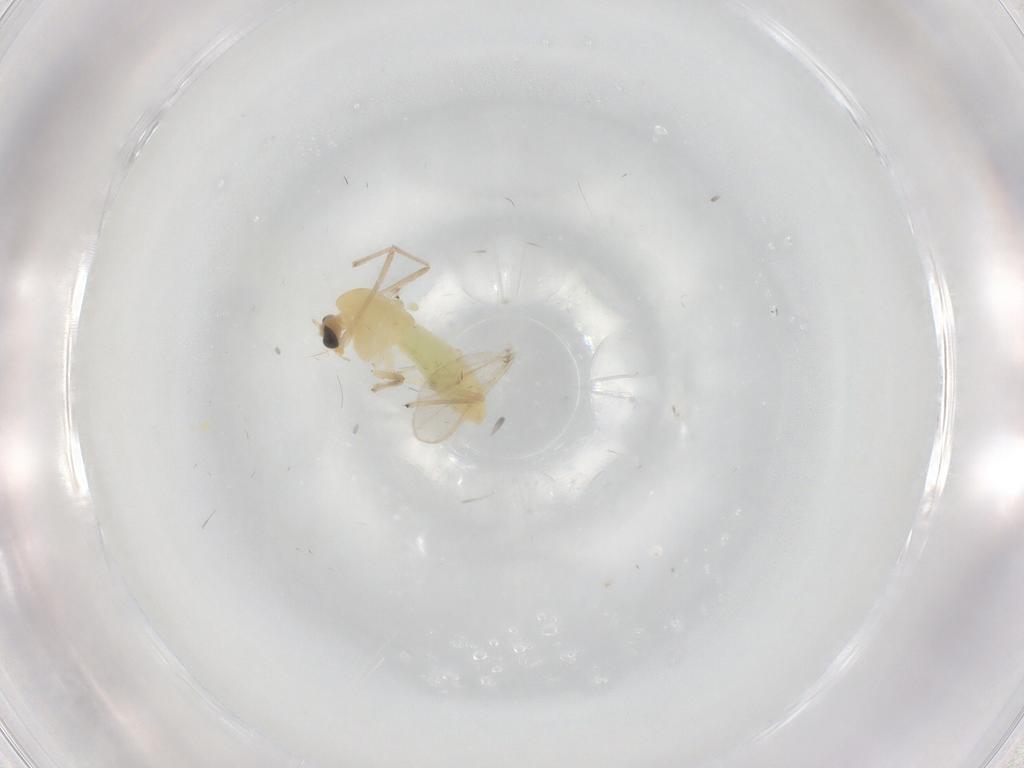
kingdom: Animalia
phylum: Arthropoda
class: Insecta
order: Diptera
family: Chironomidae
